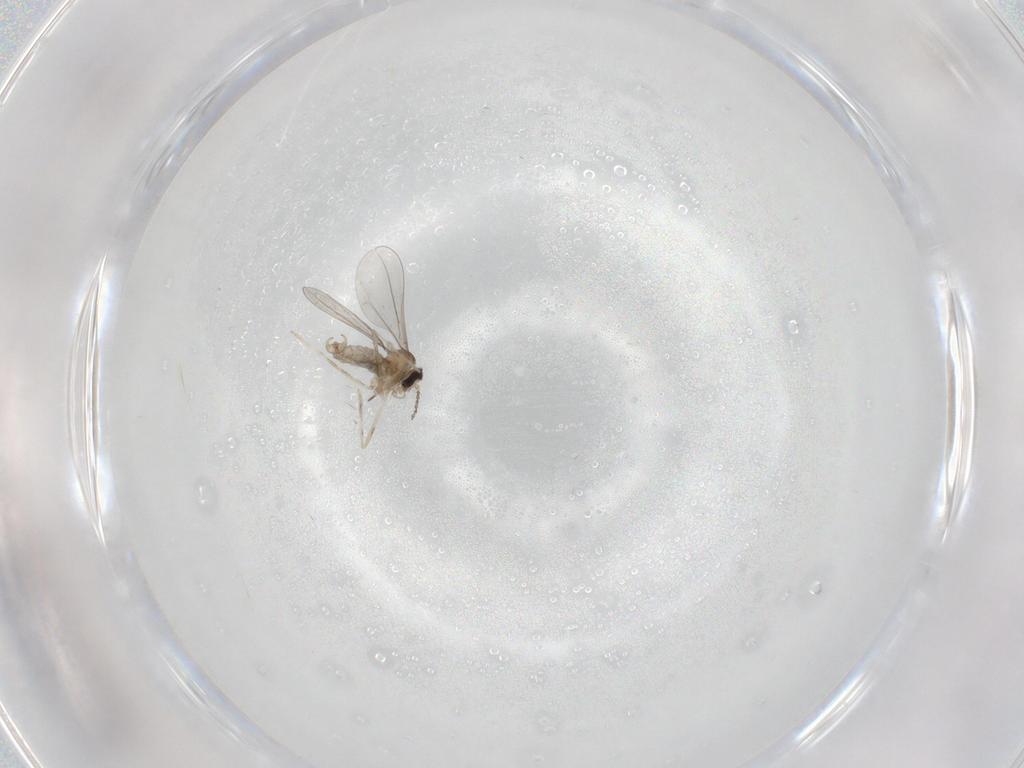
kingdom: Animalia
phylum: Arthropoda
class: Insecta
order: Diptera
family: Cecidomyiidae
